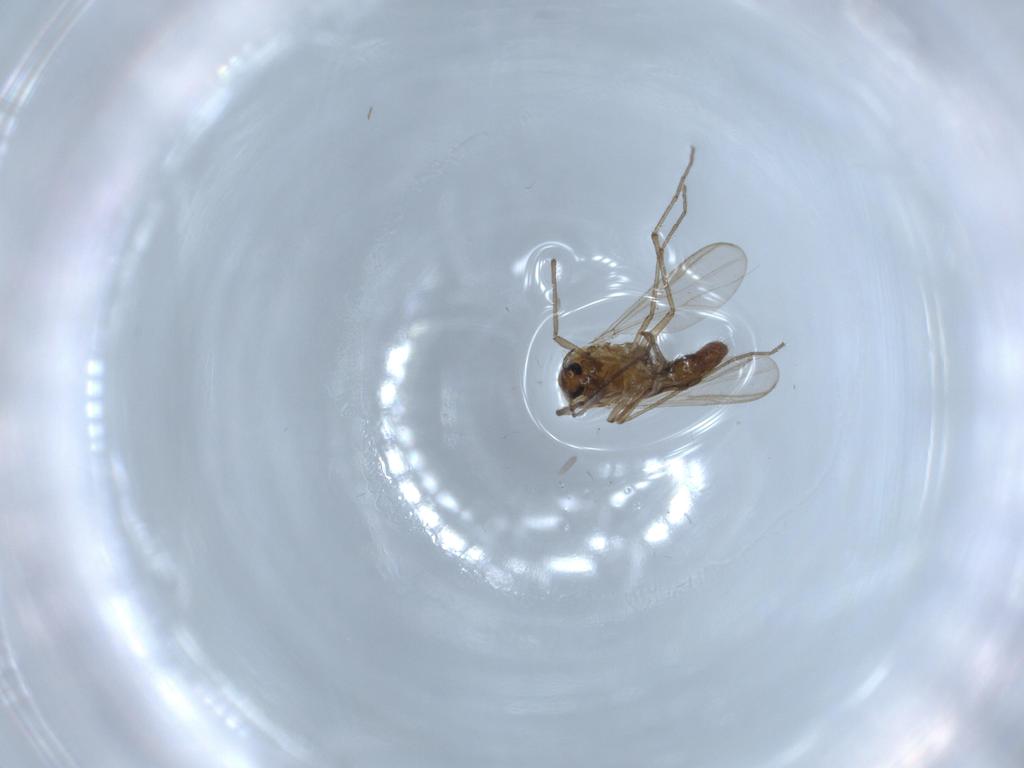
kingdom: Animalia
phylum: Arthropoda
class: Insecta
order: Diptera
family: Chironomidae
